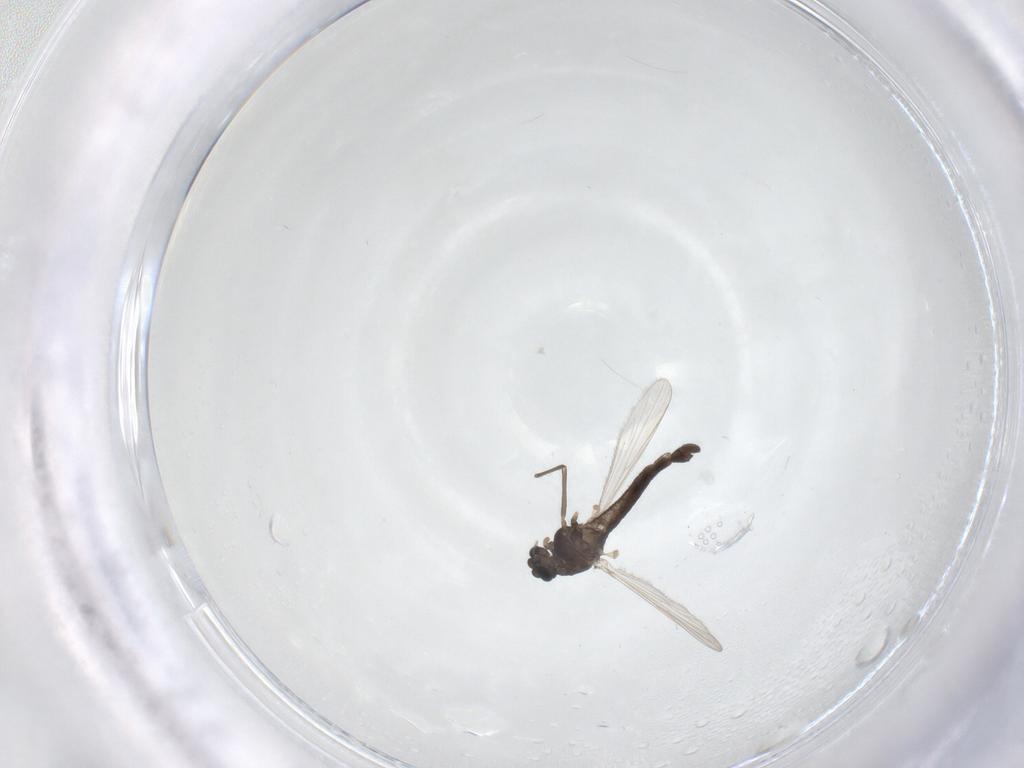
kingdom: Animalia
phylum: Arthropoda
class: Insecta
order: Diptera
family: Chironomidae
